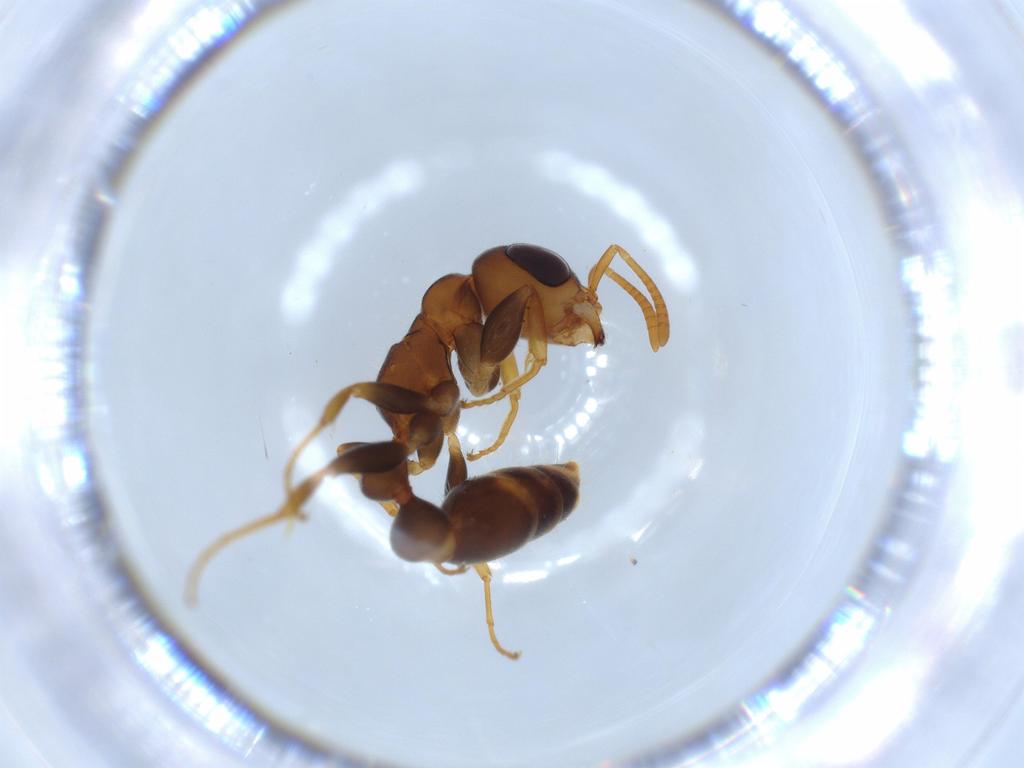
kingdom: Animalia
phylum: Arthropoda
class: Insecta
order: Hymenoptera
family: Formicidae
